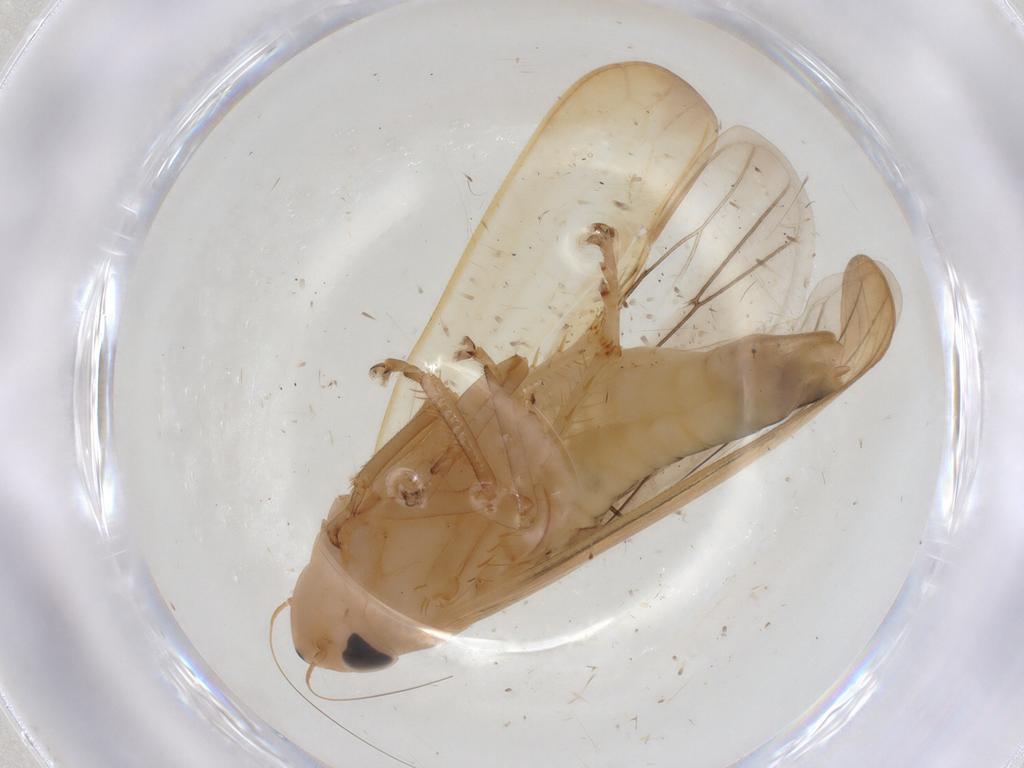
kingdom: Animalia
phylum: Arthropoda
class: Insecta
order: Hemiptera
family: Cicadellidae
